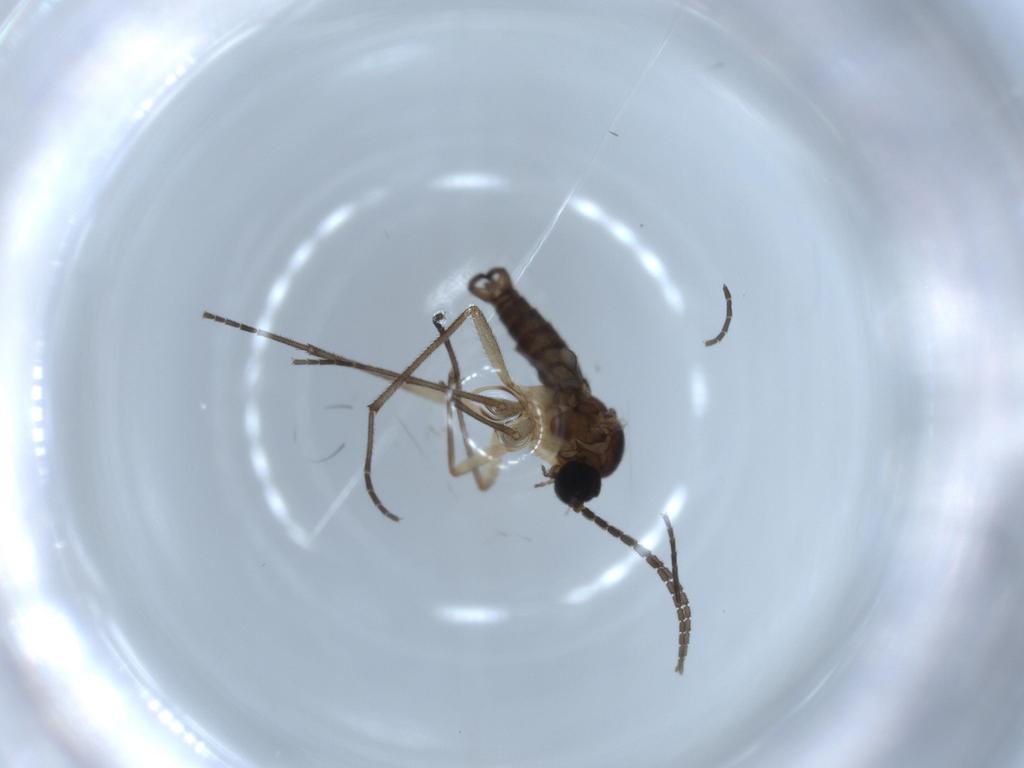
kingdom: Animalia
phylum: Arthropoda
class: Insecta
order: Diptera
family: Sciaridae
